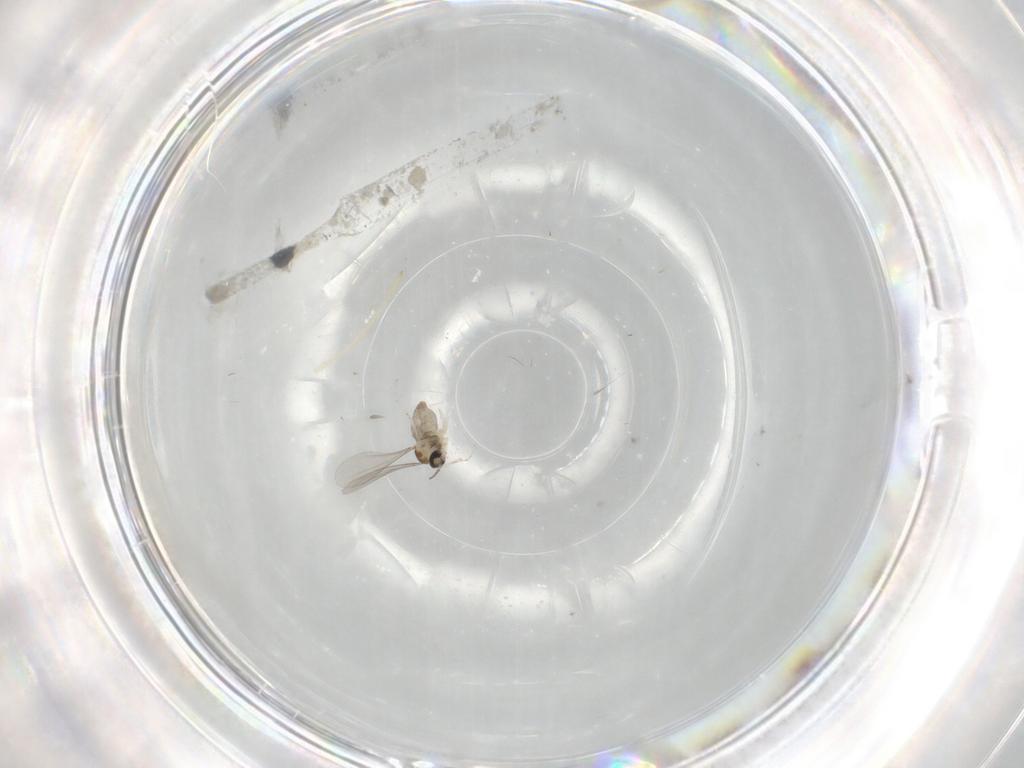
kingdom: Animalia
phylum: Arthropoda
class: Insecta
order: Diptera
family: Cecidomyiidae
